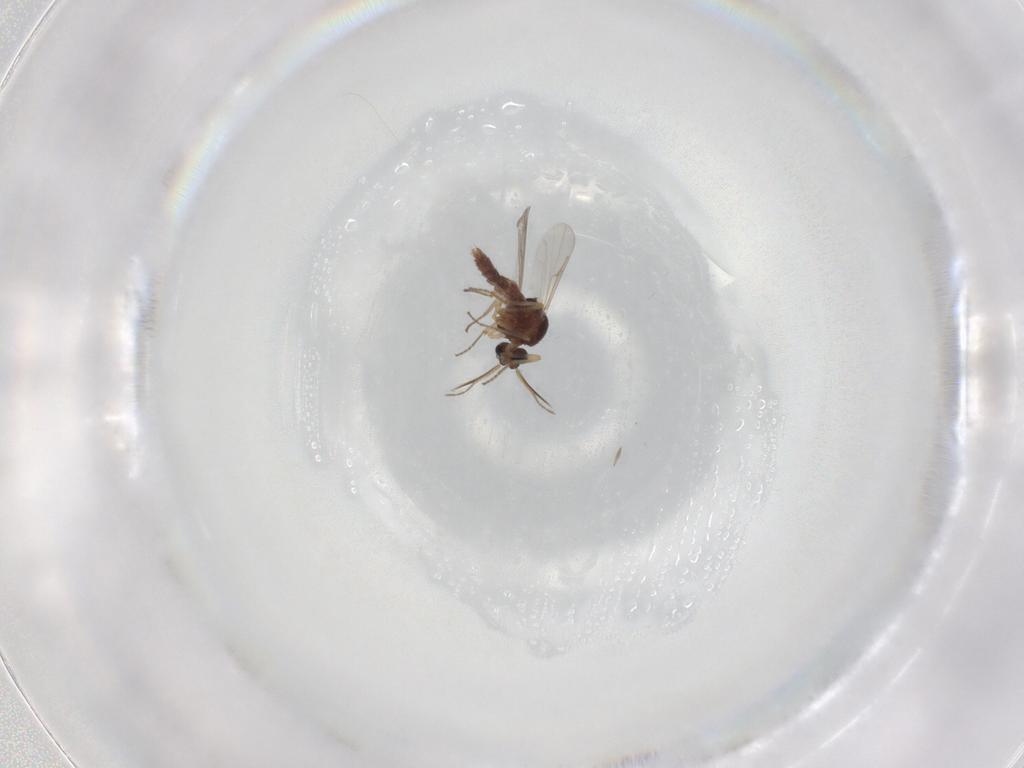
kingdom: Animalia
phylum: Arthropoda
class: Insecta
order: Diptera
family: Ceratopogonidae
